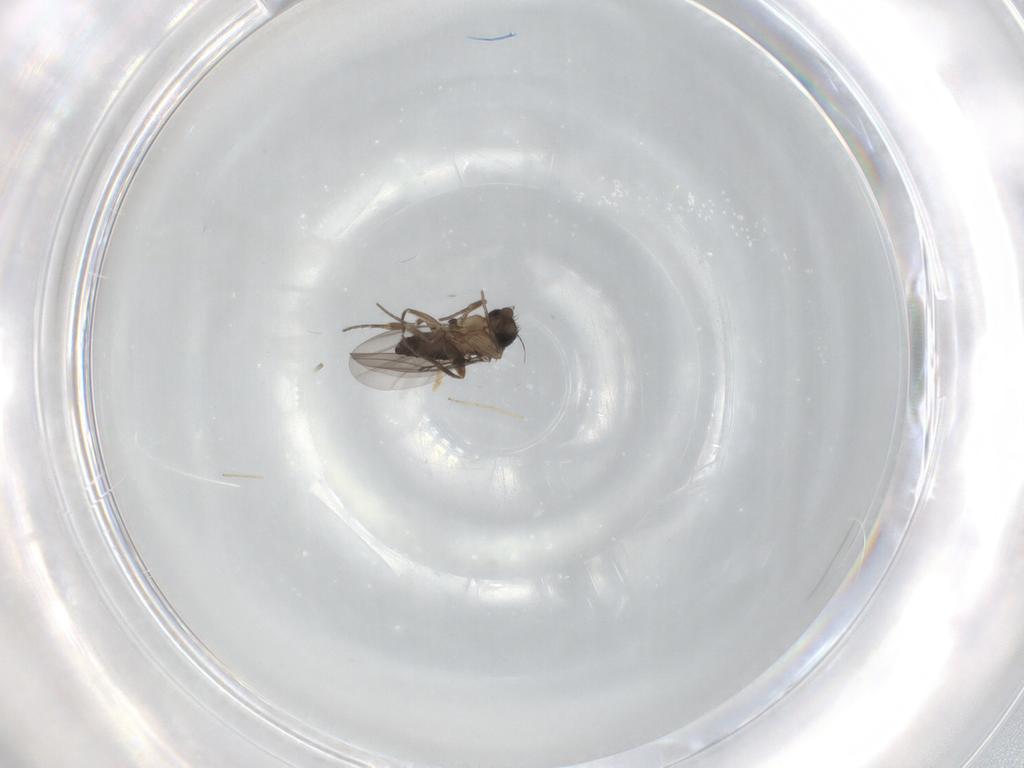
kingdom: Animalia
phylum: Arthropoda
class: Insecta
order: Diptera
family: Chironomidae
